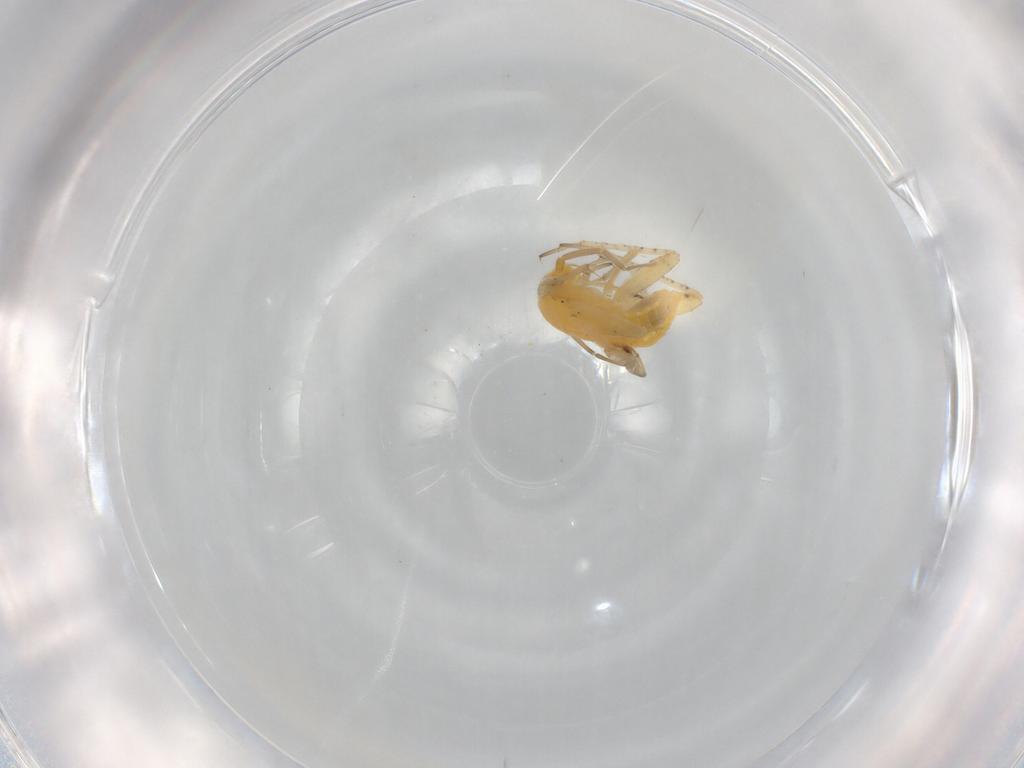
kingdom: Animalia
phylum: Arthropoda
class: Insecta
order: Hemiptera
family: Miridae
